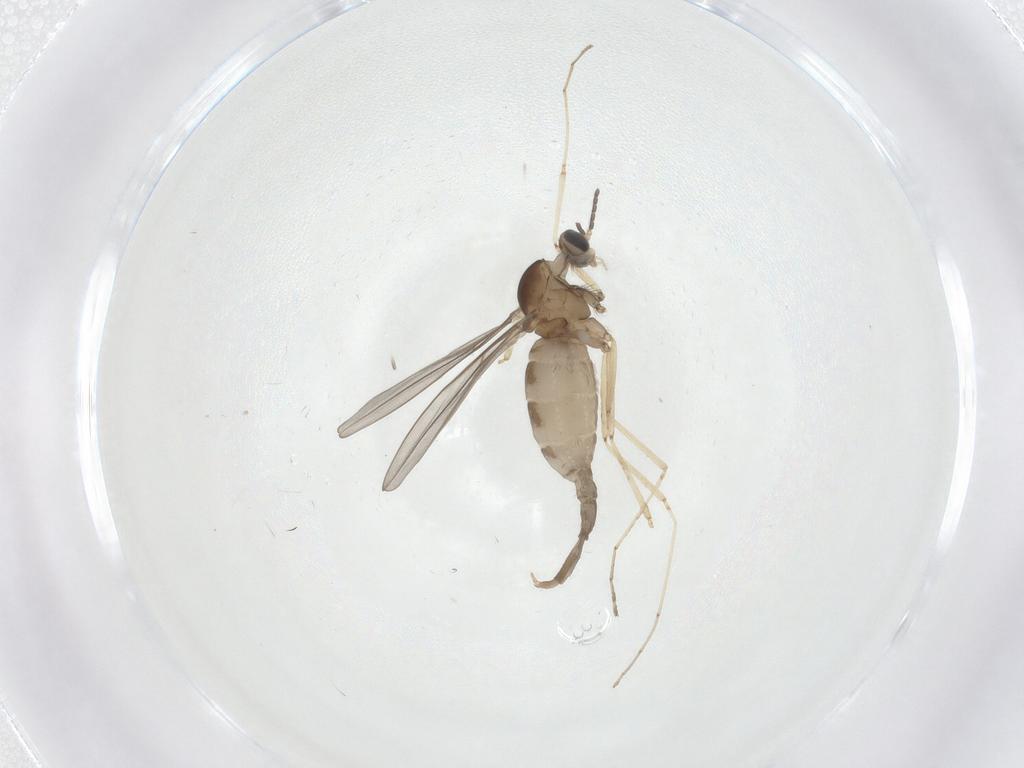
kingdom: Animalia
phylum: Arthropoda
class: Insecta
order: Diptera
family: Cecidomyiidae
